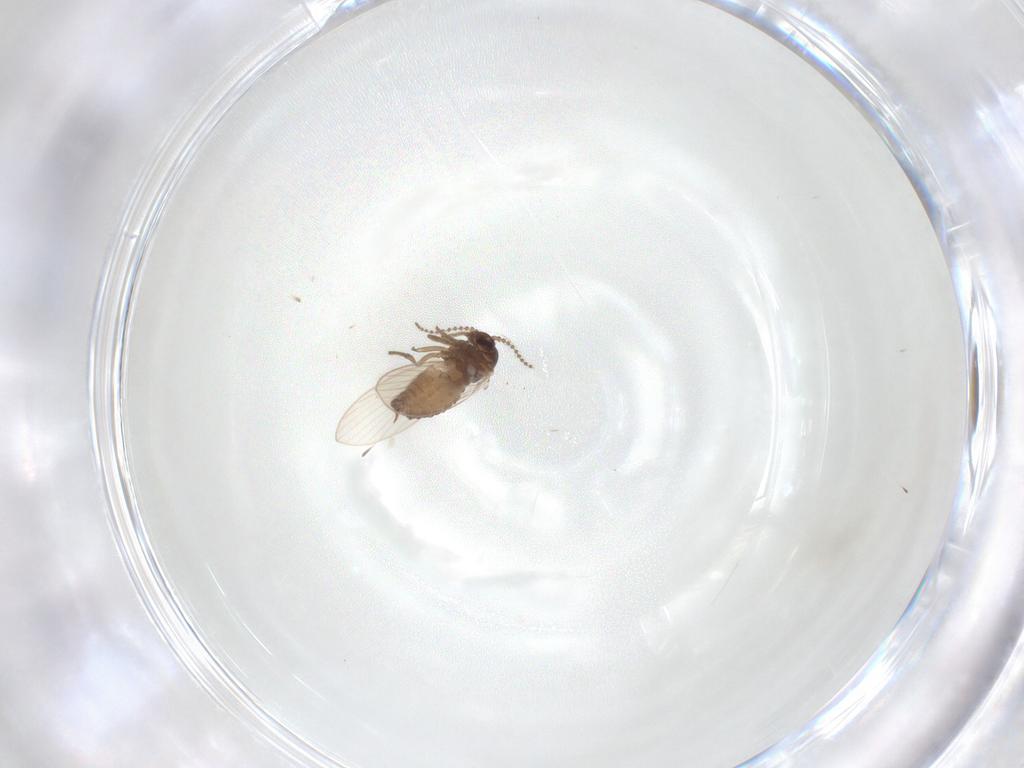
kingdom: Animalia
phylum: Arthropoda
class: Insecta
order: Diptera
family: Psychodidae
